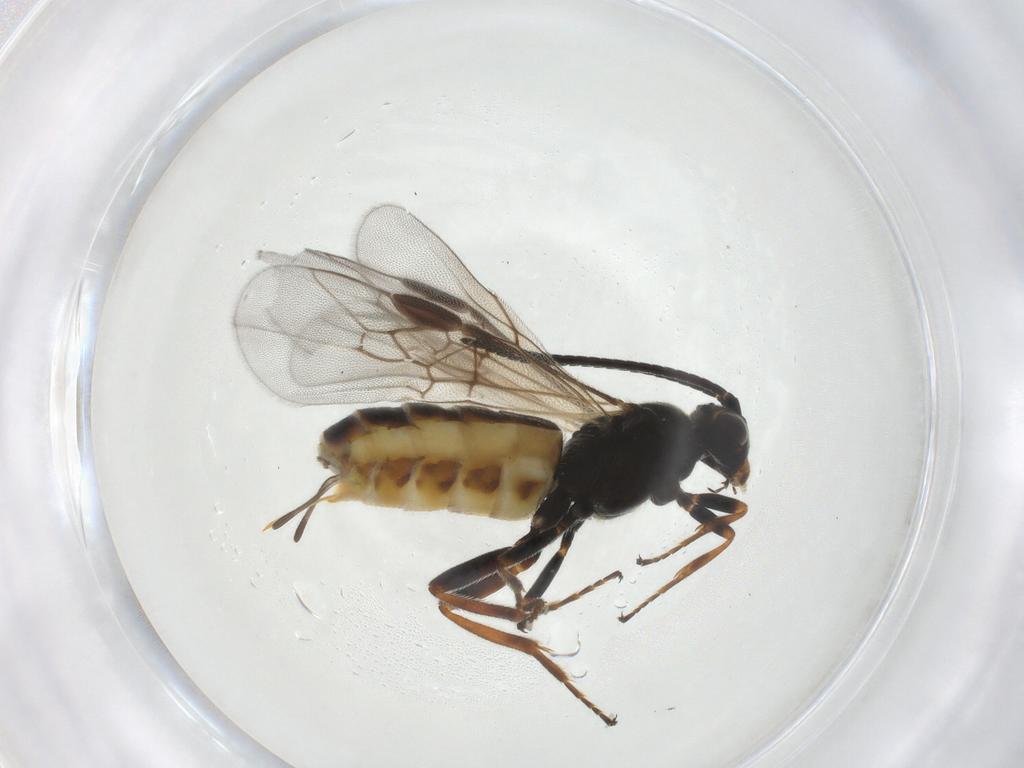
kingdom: Animalia
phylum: Arthropoda
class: Insecta
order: Hymenoptera
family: Braconidae
